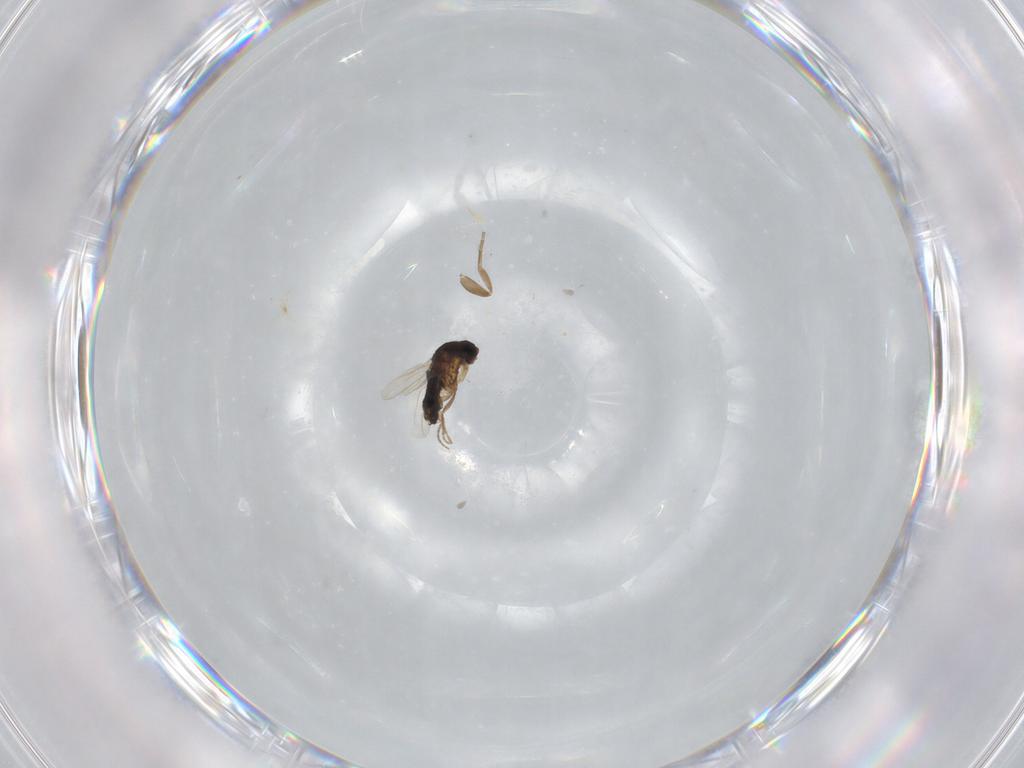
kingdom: Animalia
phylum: Arthropoda
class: Insecta
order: Diptera
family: Phoridae
